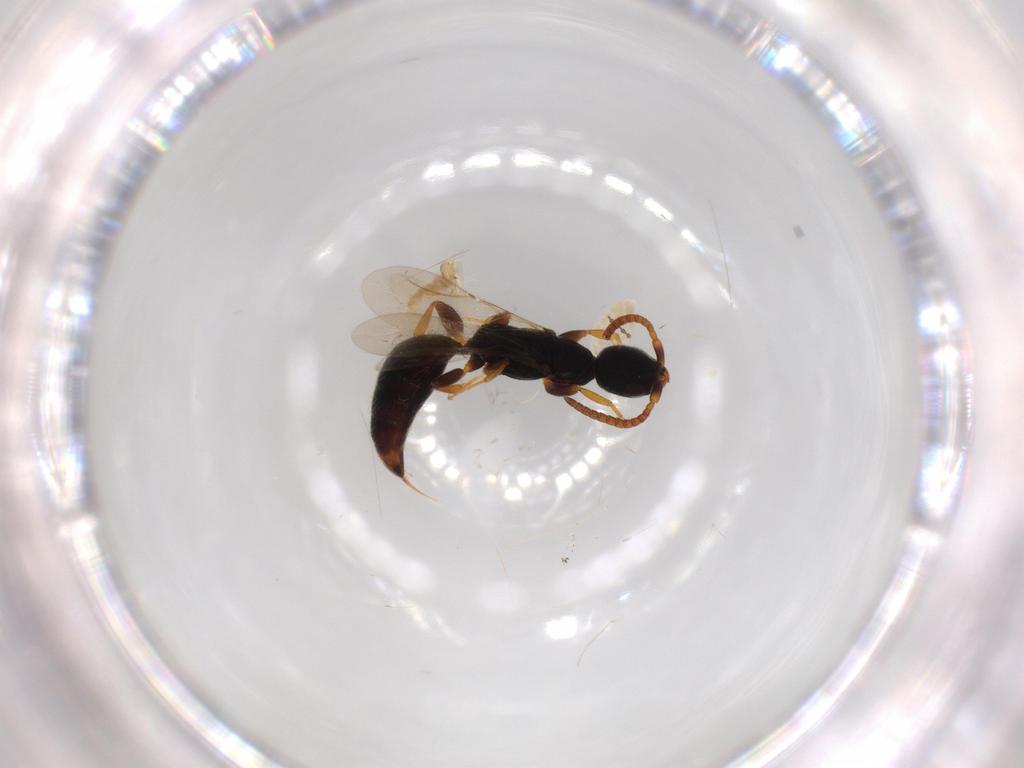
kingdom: Animalia
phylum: Arthropoda
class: Insecta
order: Hymenoptera
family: Bethylidae
